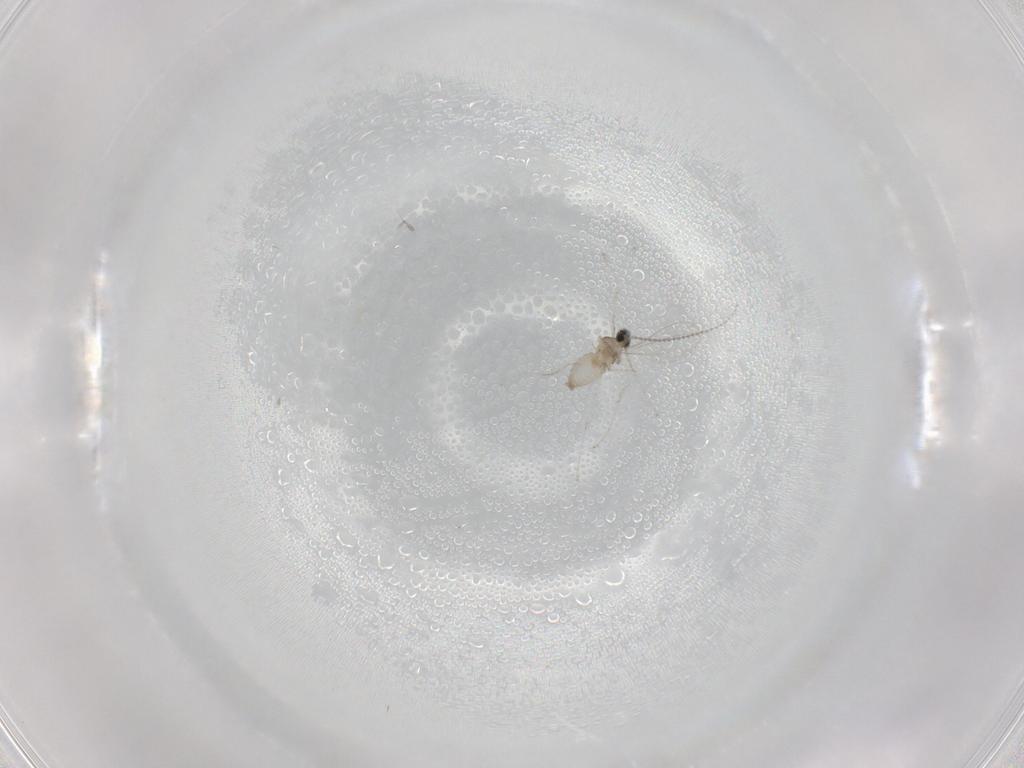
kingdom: Animalia
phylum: Arthropoda
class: Insecta
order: Diptera
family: Cecidomyiidae
